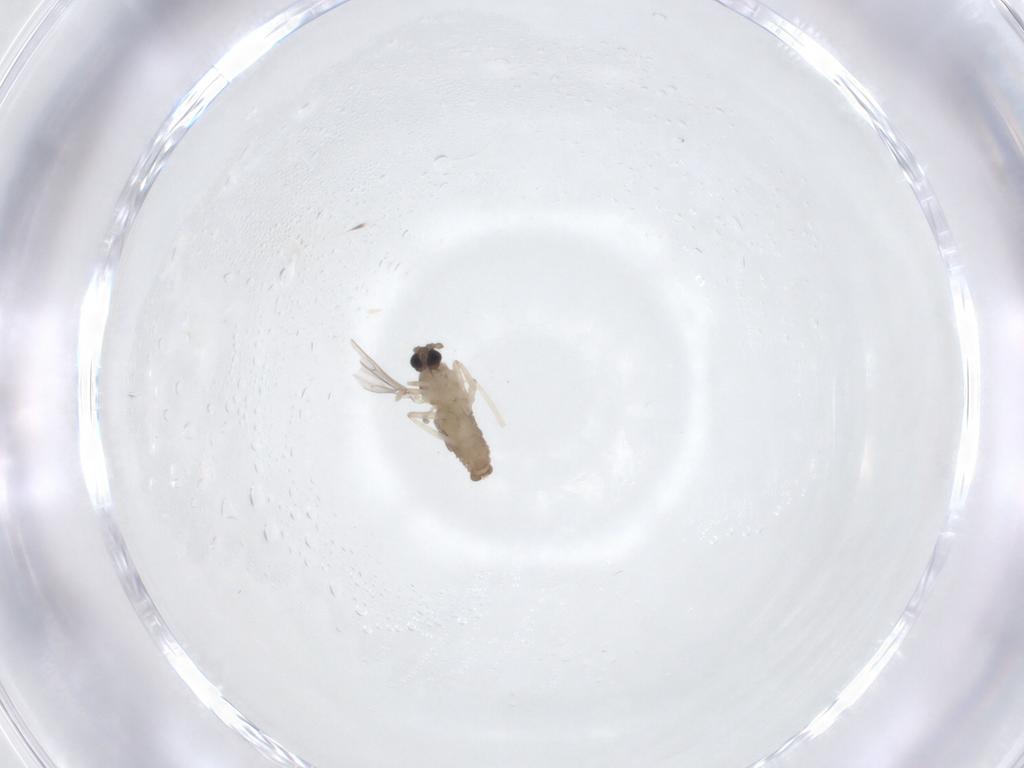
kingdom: Animalia
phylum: Arthropoda
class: Insecta
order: Diptera
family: Cecidomyiidae
